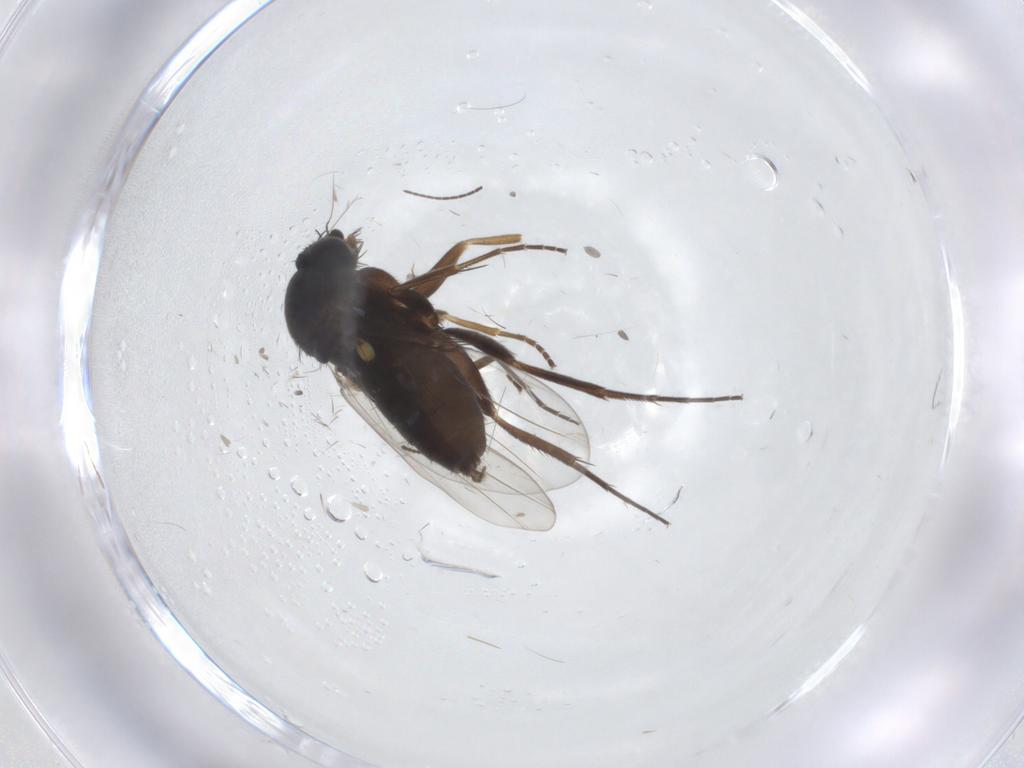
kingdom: Animalia
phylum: Arthropoda
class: Insecta
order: Diptera
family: Ceratopogonidae
